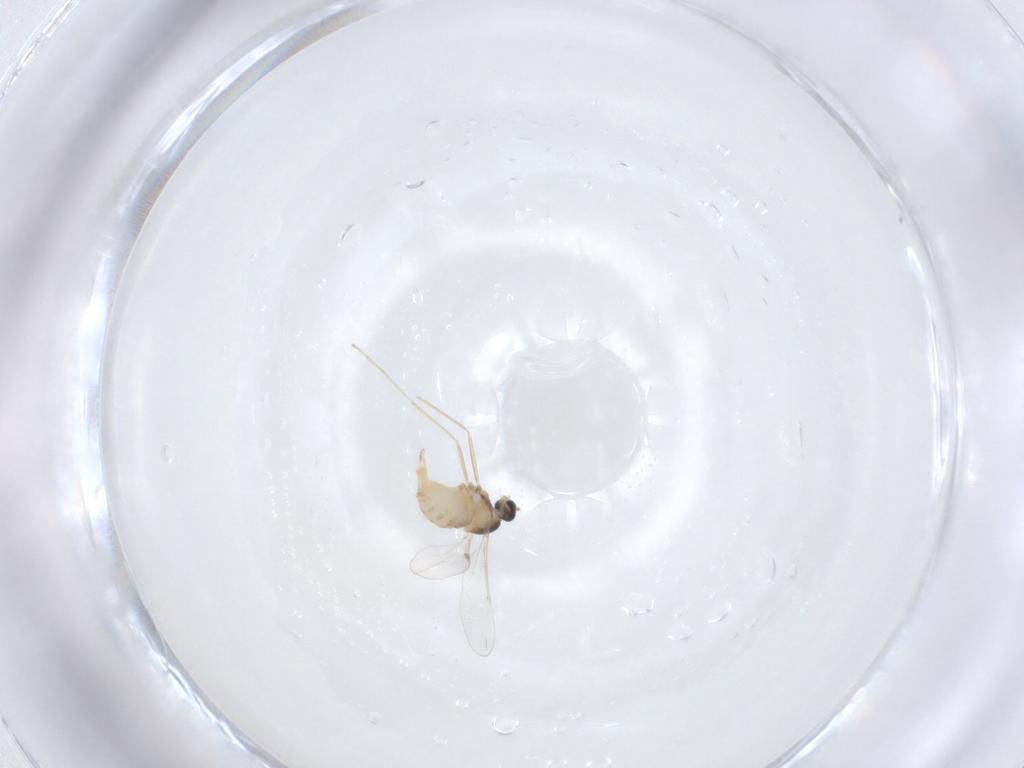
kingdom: Animalia
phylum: Arthropoda
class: Insecta
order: Diptera
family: Cecidomyiidae
